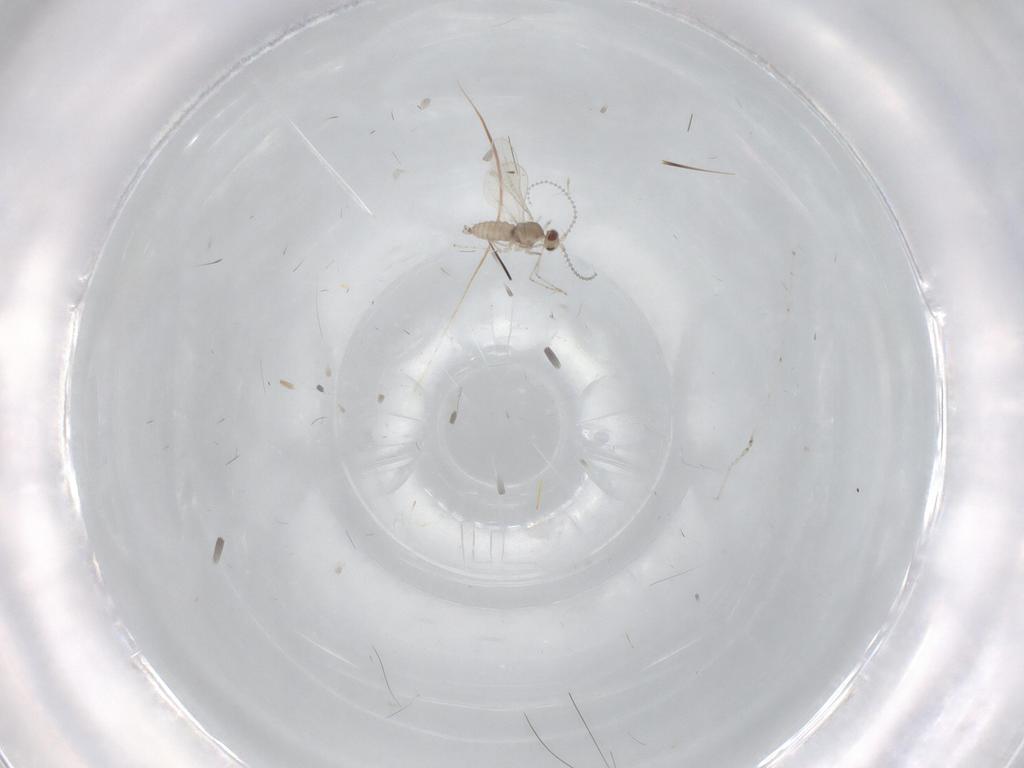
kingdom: Animalia
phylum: Arthropoda
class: Insecta
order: Diptera
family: Cecidomyiidae
